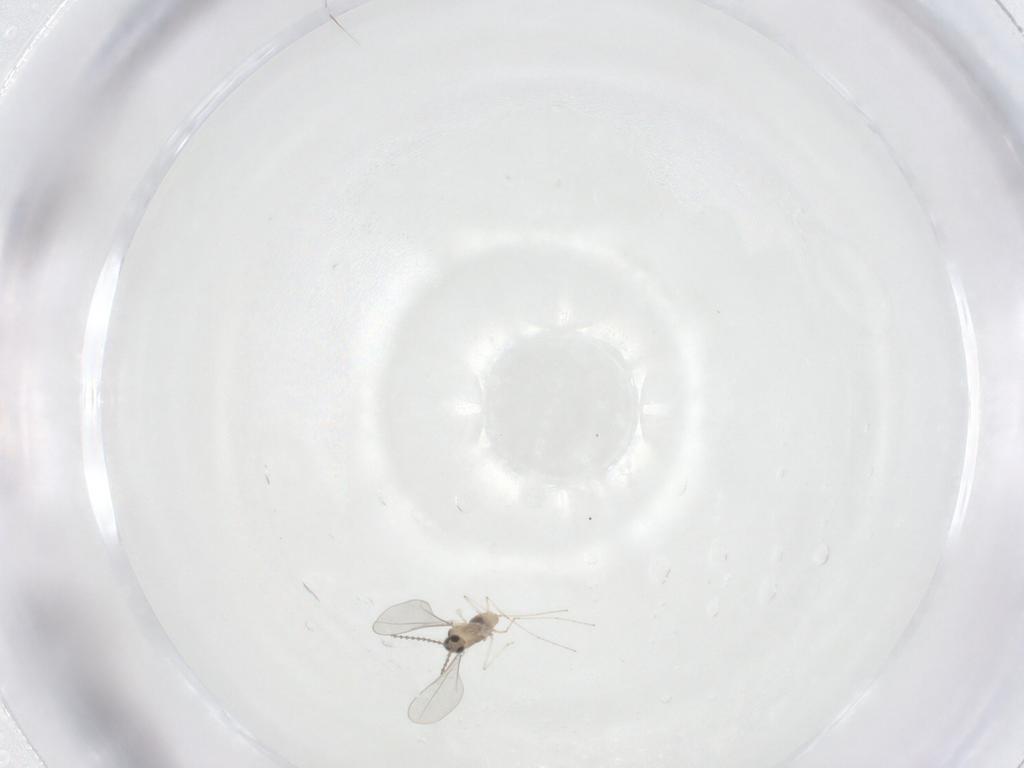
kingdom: Animalia
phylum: Arthropoda
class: Insecta
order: Diptera
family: Cecidomyiidae
